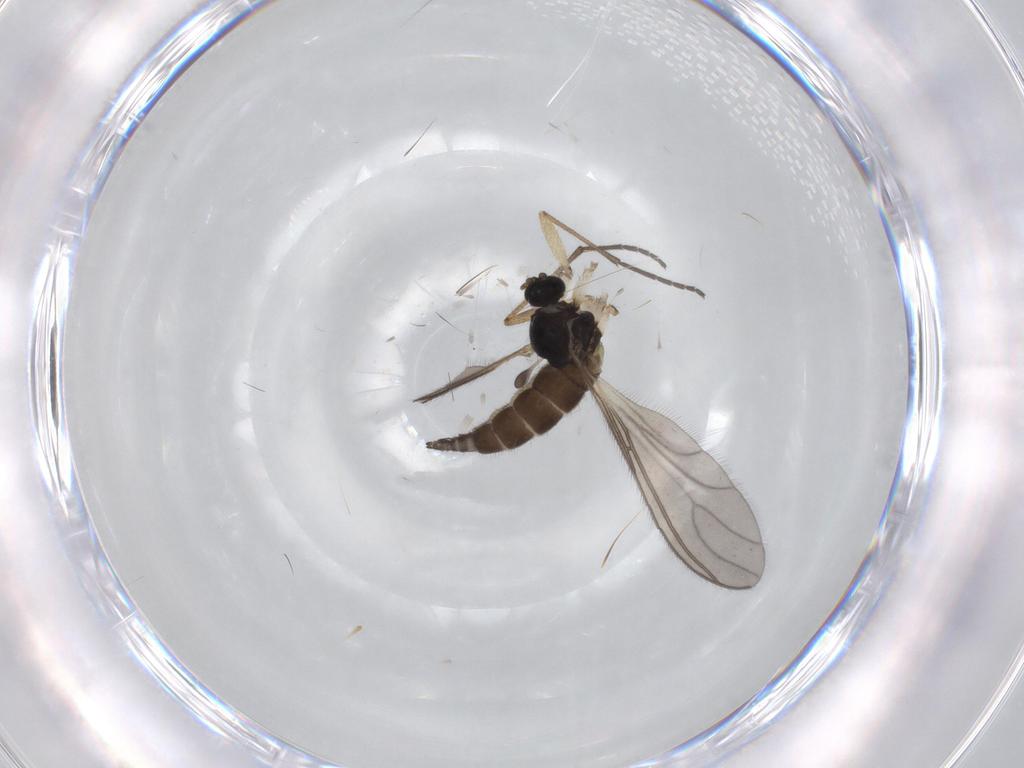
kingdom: Animalia
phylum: Arthropoda
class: Insecta
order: Diptera
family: Sciaridae
